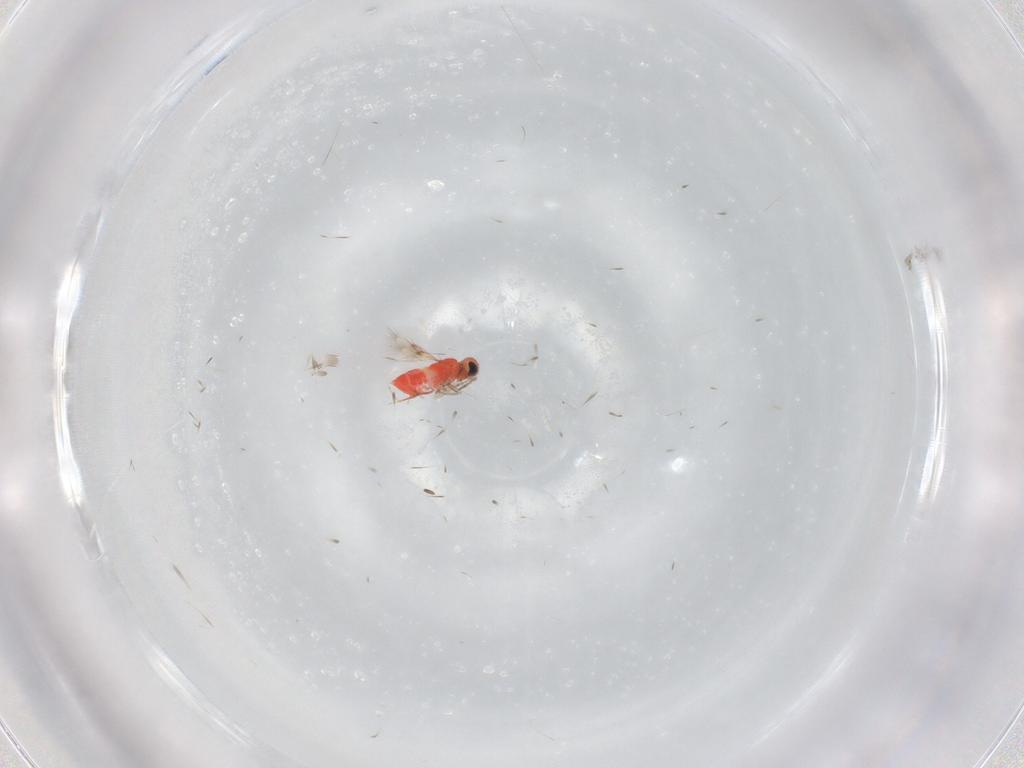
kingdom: Animalia
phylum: Arthropoda
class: Insecta
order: Hymenoptera
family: Trichogrammatidae
